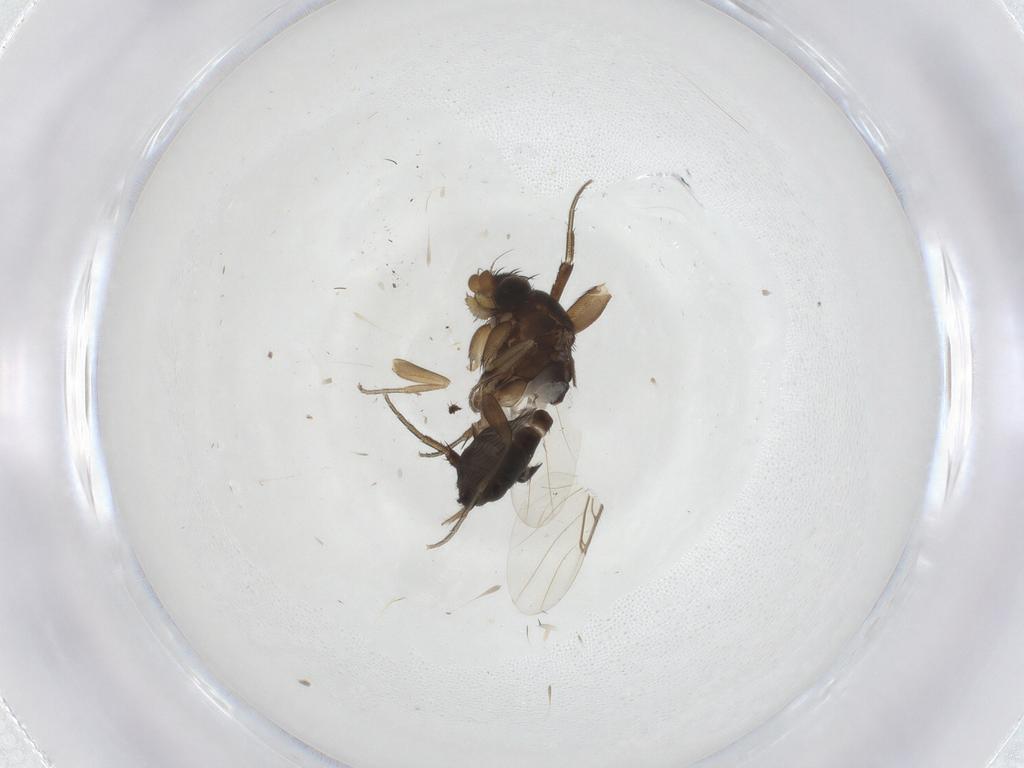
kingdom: Animalia
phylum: Arthropoda
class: Insecta
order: Diptera
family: Phoridae
